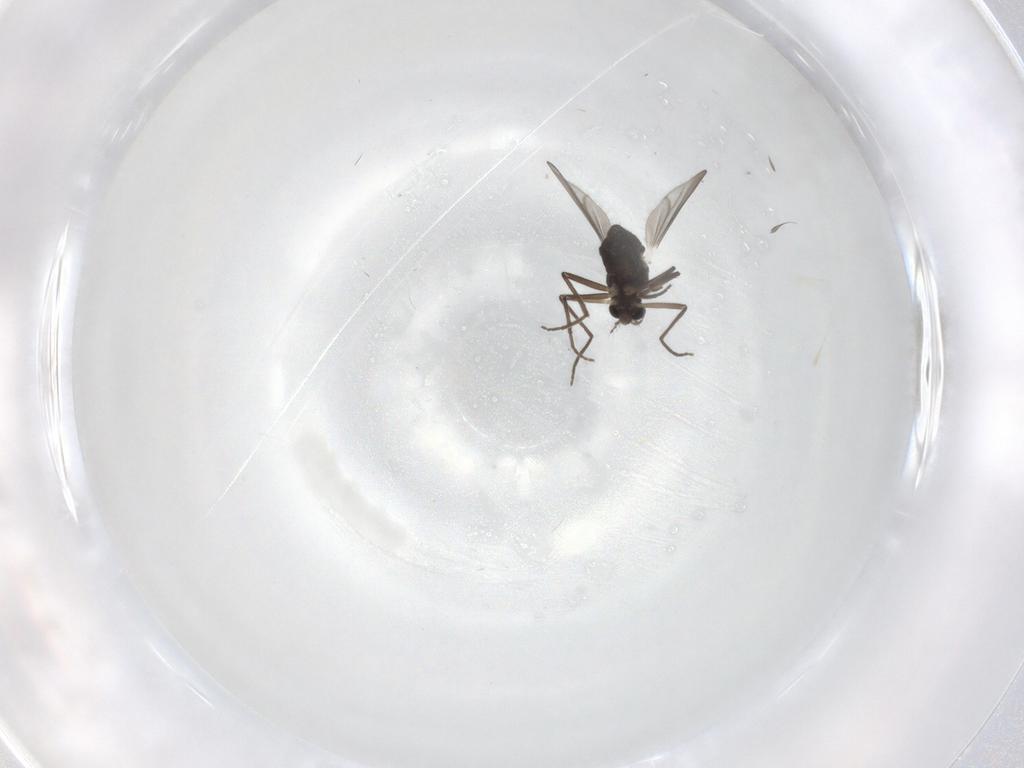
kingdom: Animalia
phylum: Arthropoda
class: Insecta
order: Diptera
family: Chironomidae
